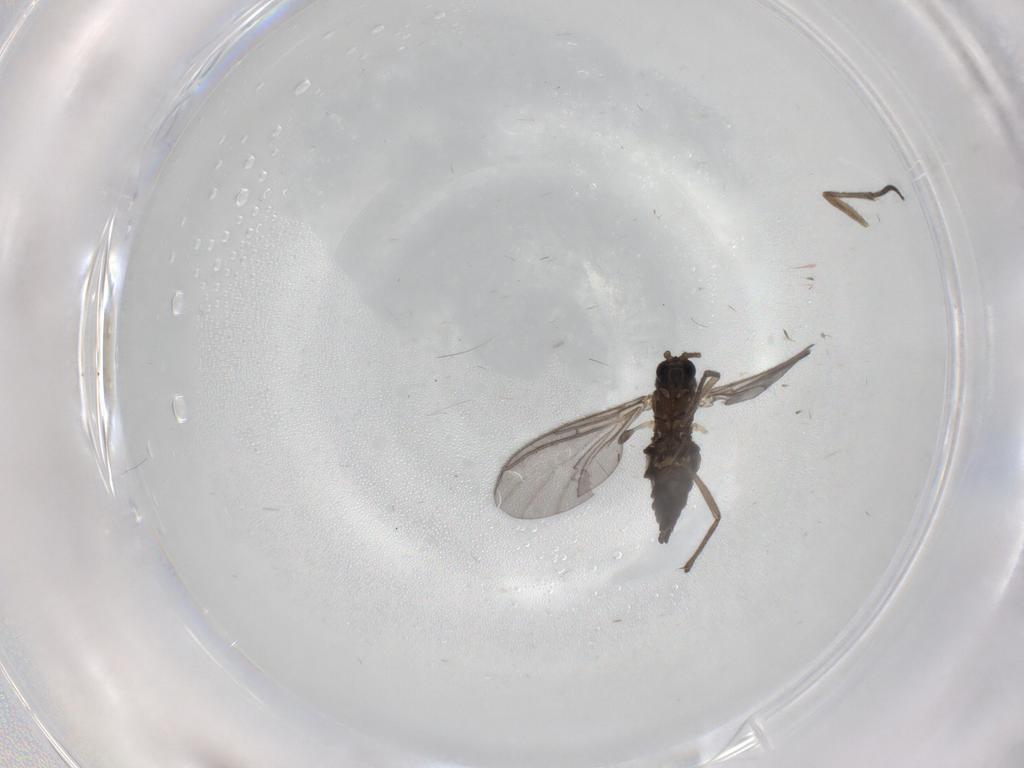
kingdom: Animalia
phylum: Arthropoda
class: Insecta
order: Diptera
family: Sciaridae
